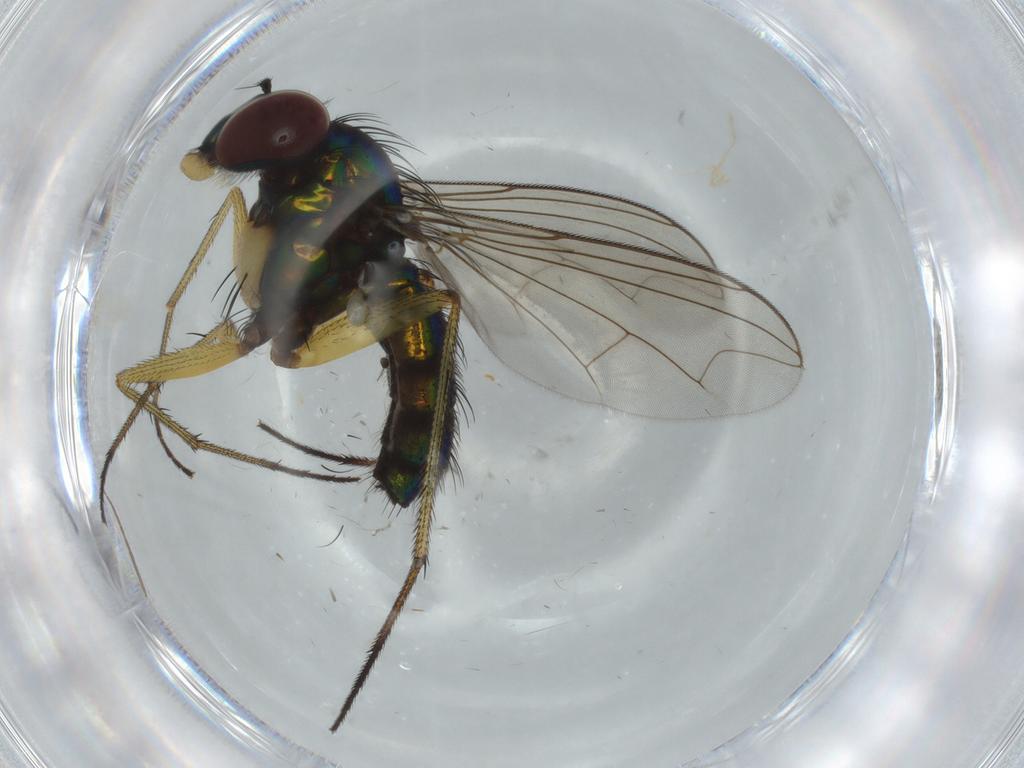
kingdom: Animalia
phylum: Arthropoda
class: Insecta
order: Diptera
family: Dolichopodidae
